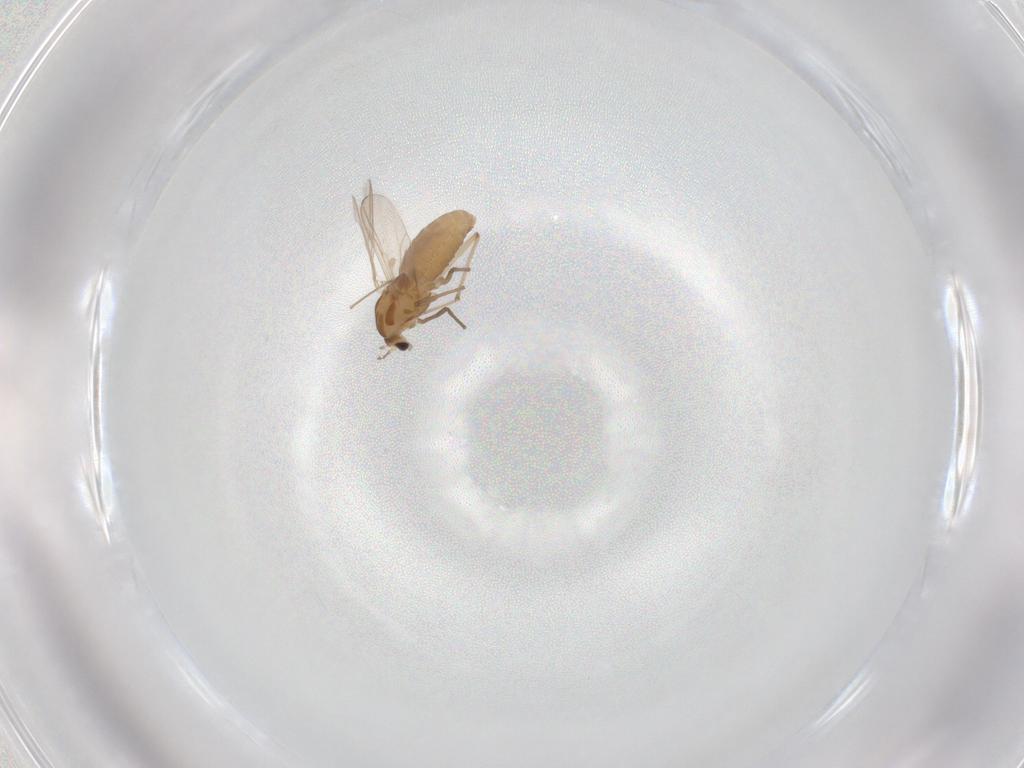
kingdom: Animalia
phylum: Arthropoda
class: Insecta
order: Diptera
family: Chironomidae
